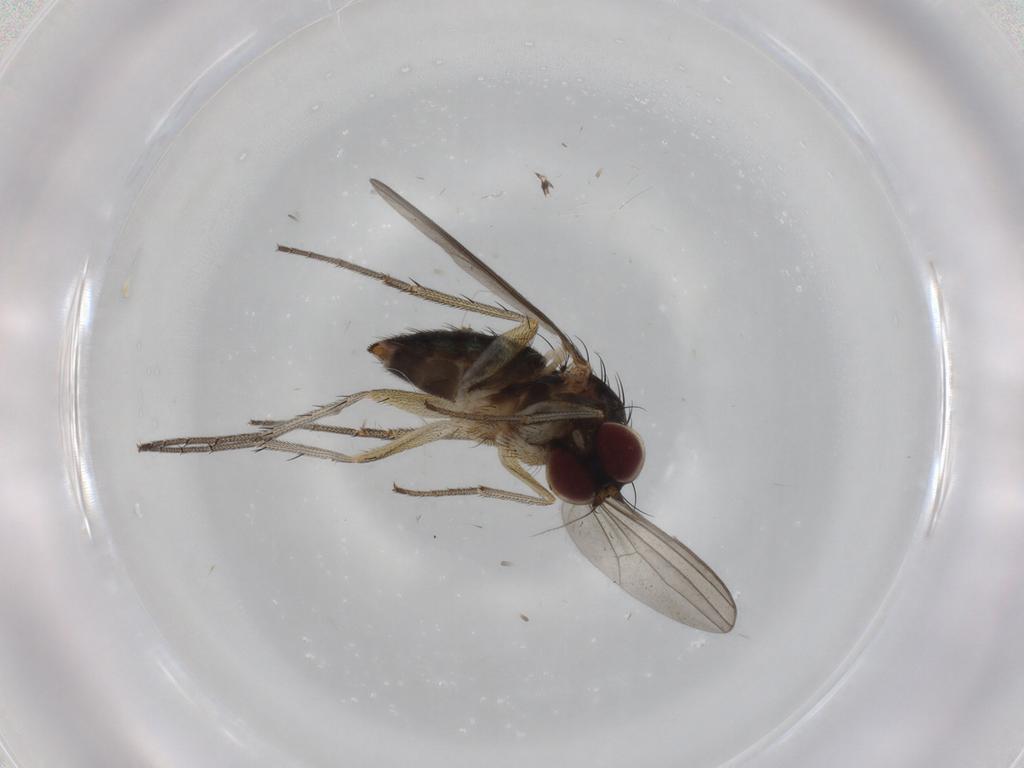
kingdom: Animalia
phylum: Arthropoda
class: Insecta
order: Diptera
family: Dolichopodidae
